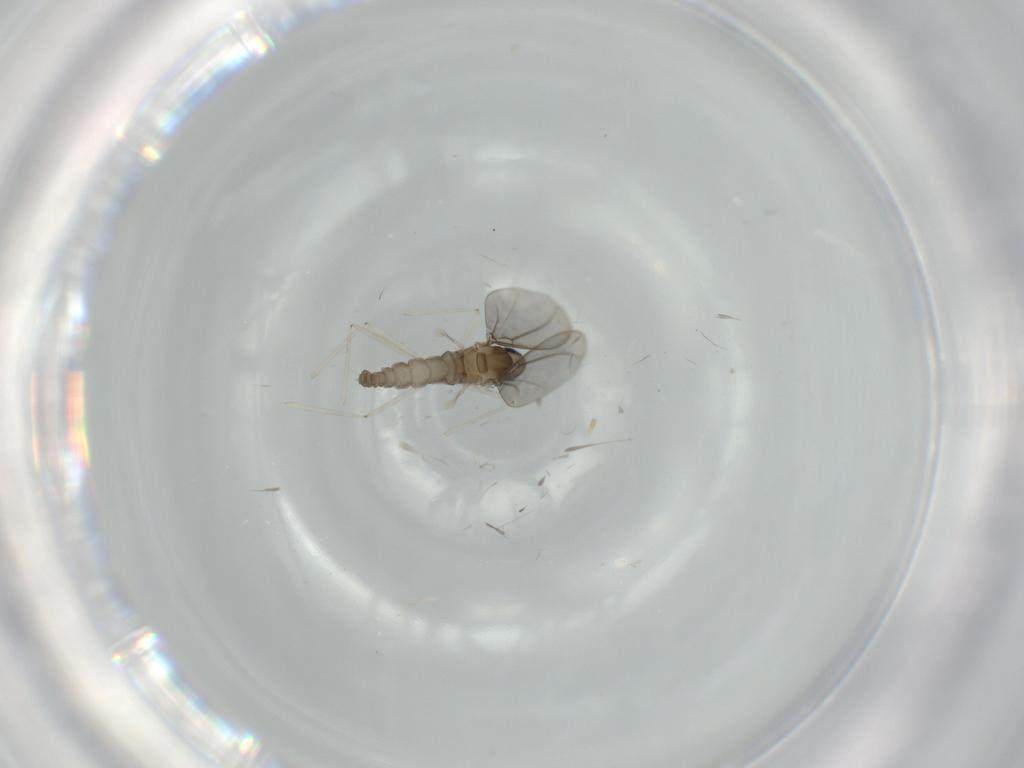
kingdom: Animalia
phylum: Arthropoda
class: Insecta
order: Diptera
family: Cecidomyiidae
